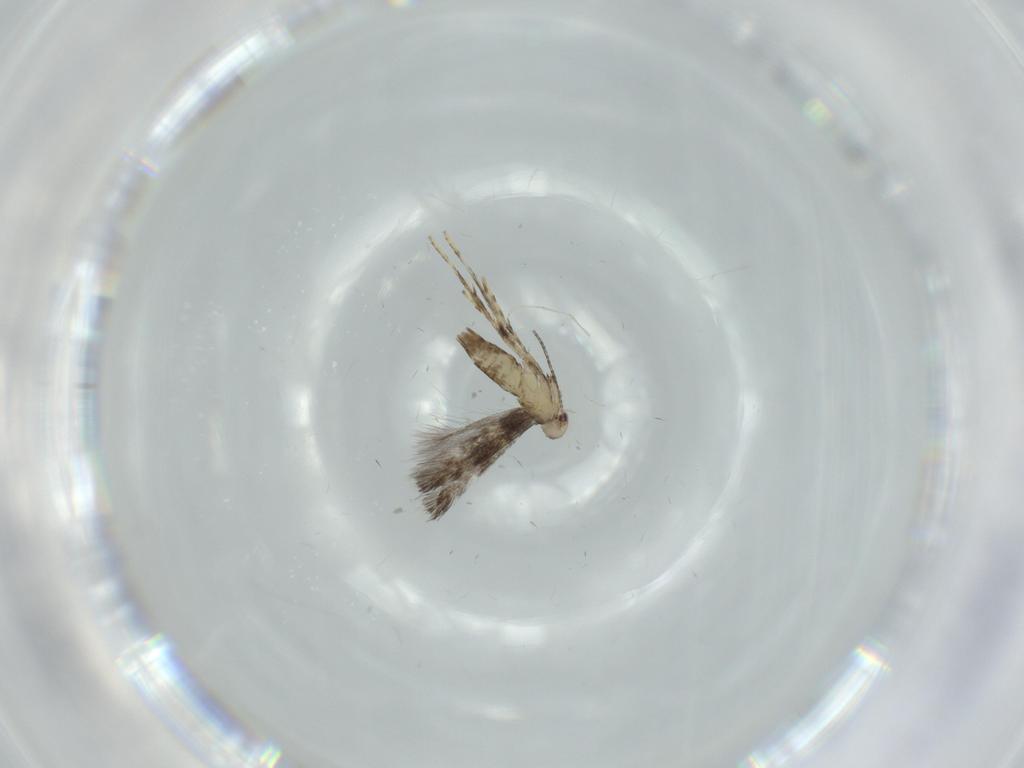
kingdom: Animalia
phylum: Arthropoda
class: Insecta
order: Lepidoptera
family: Gracillariidae
